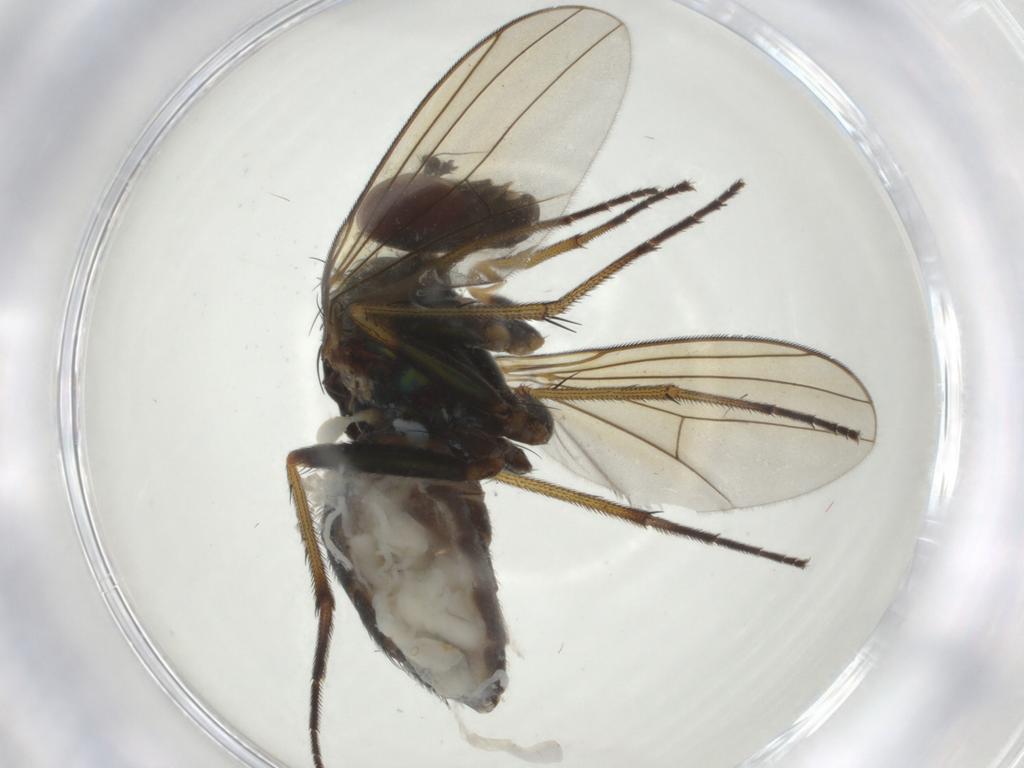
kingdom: Animalia
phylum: Arthropoda
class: Insecta
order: Diptera
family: Dolichopodidae
